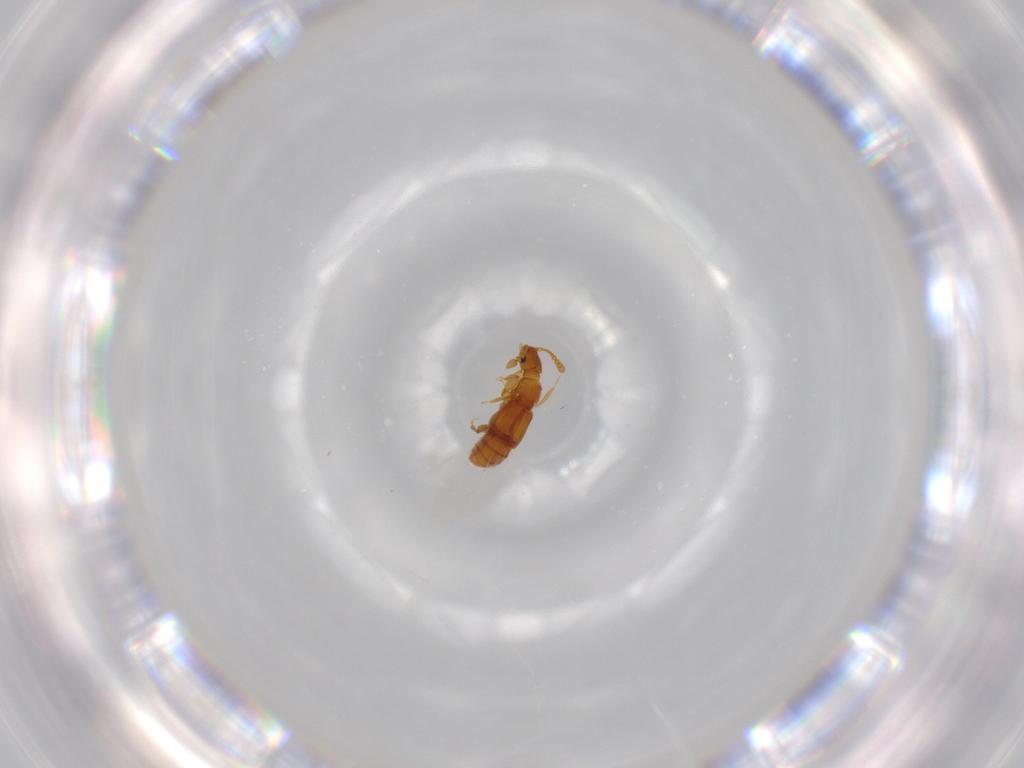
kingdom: Animalia
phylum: Arthropoda
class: Insecta
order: Coleoptera
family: Staphylinidae
